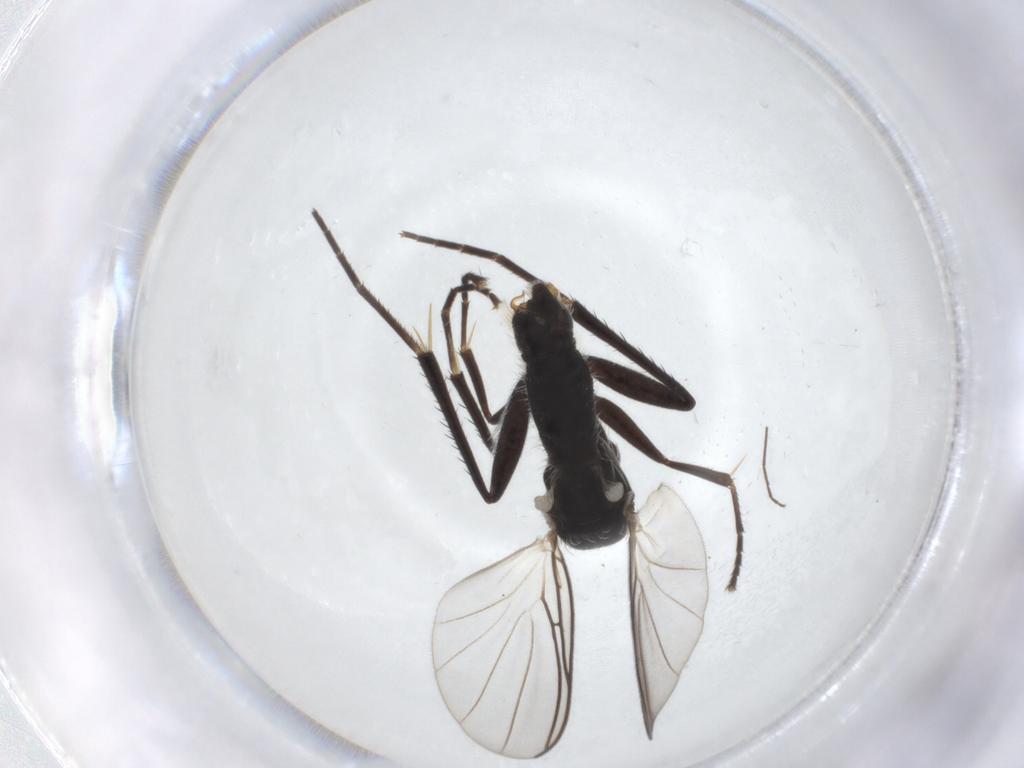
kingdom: Animalia
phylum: Arthropoda
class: Insecta
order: Diptera
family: Mycetophilidae
